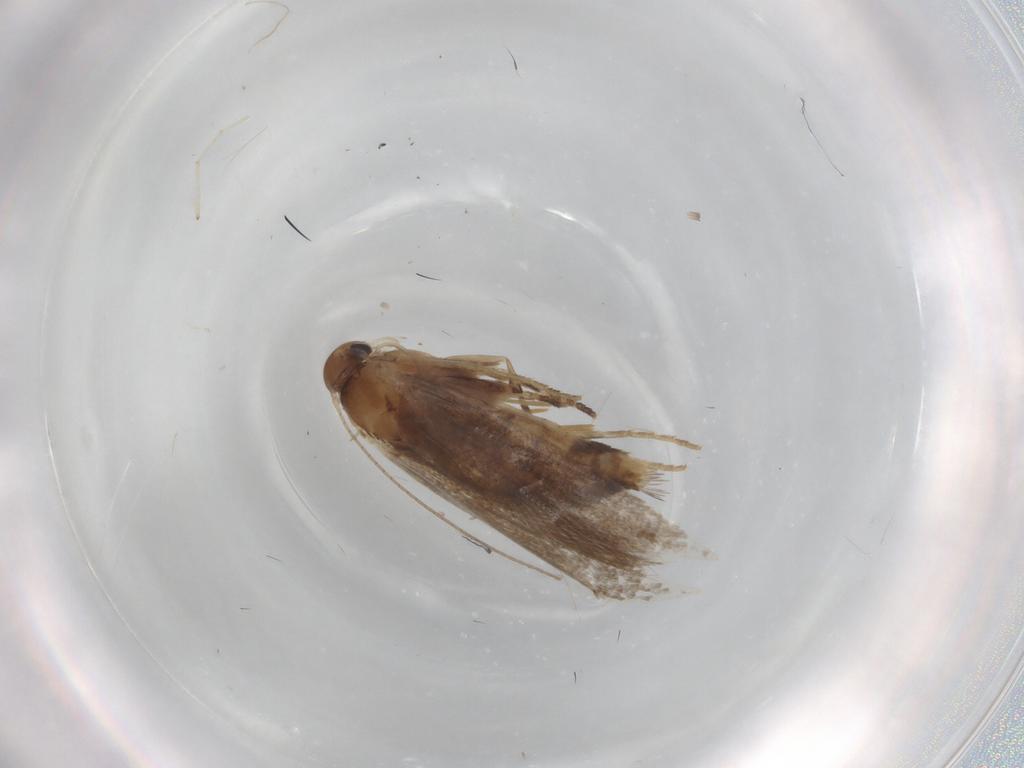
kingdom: Animalia
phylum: Arthropoda
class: Insecta
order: Lepidoptera
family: Elachistidae
